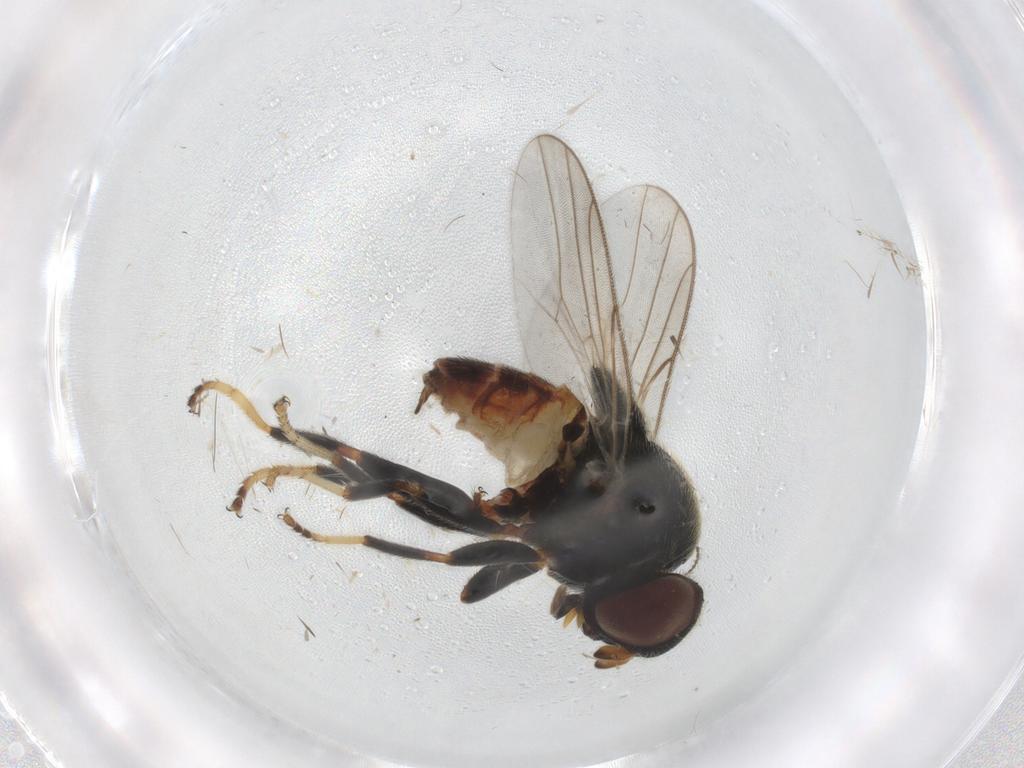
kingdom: Animalia
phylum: Arthropoda
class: Insecta
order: Diptera
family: Chloropidae
